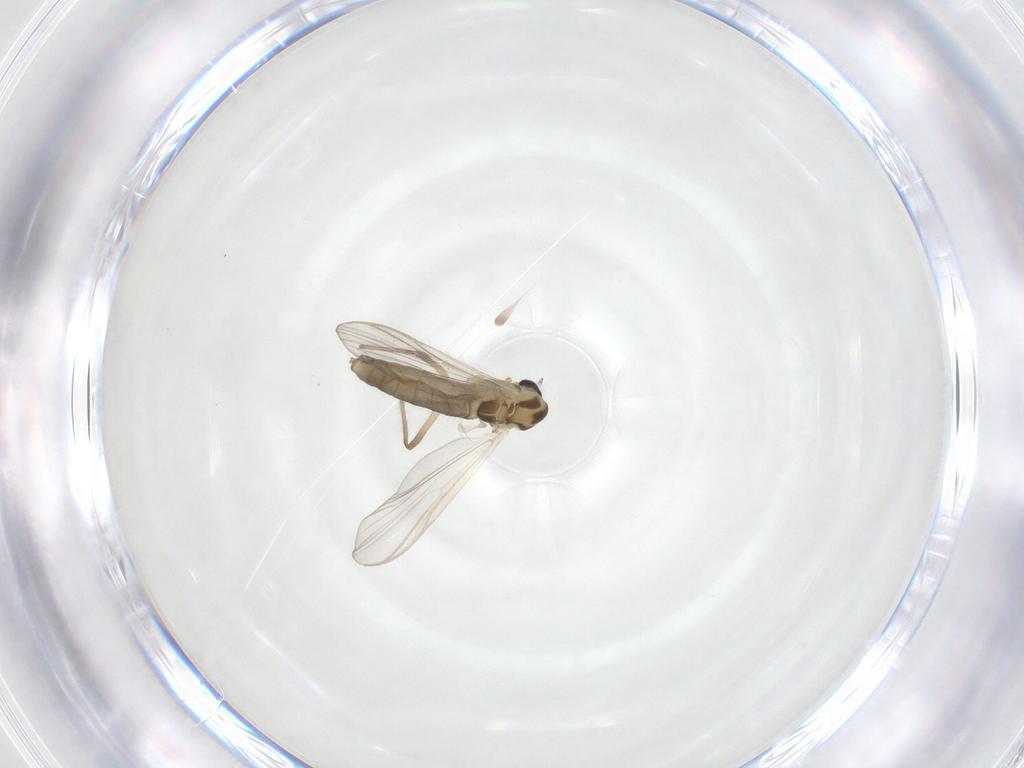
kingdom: Animalia
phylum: Arthropoda
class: Insecta
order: Diptera
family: Chironomidae
